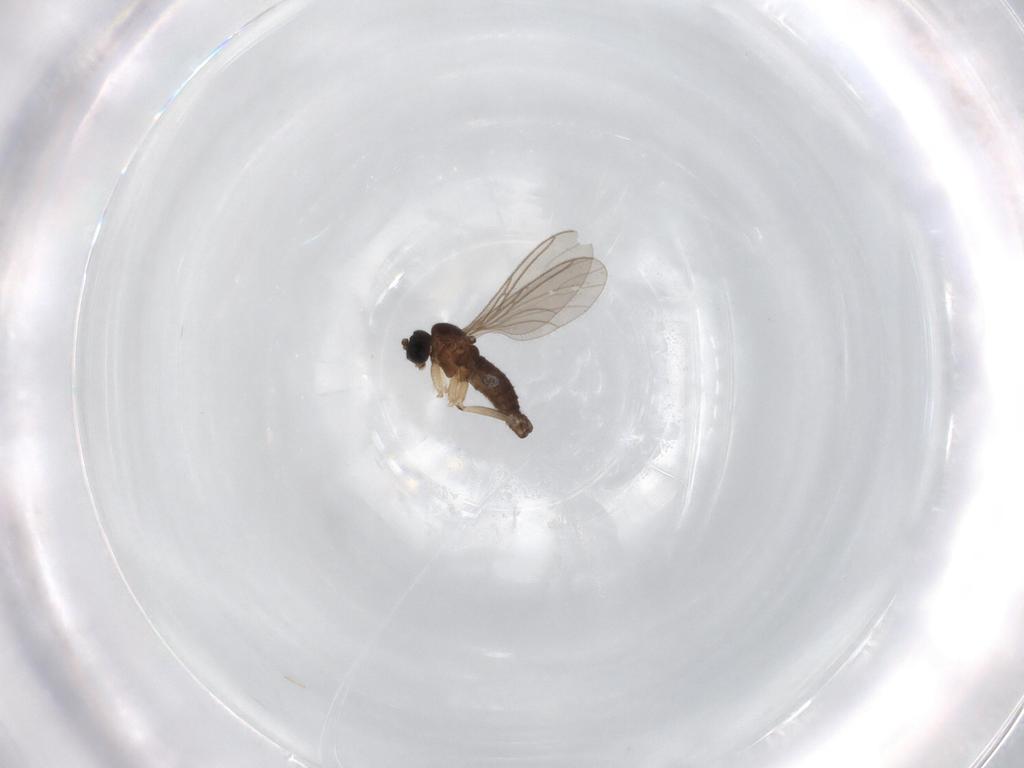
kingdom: Animalia
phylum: Arthropoda
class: Insecta
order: Diptera
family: Sciaridae
